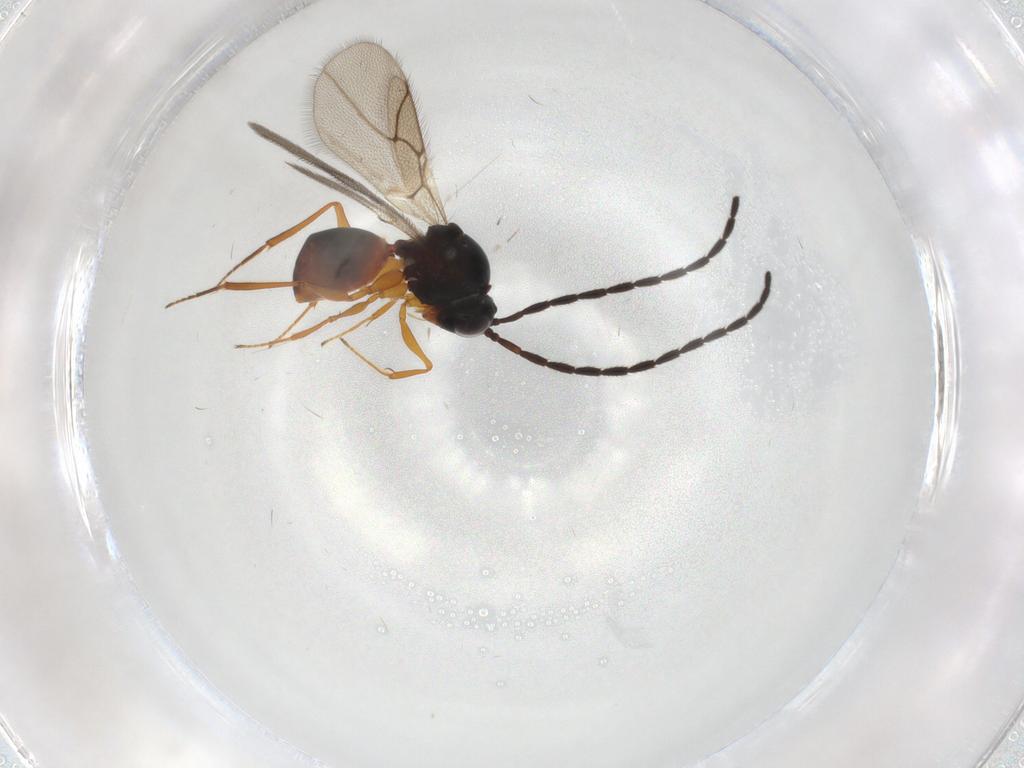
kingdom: Animalia
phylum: Arthropoda
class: Insecta
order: Hymenoptera
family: Figitidae
